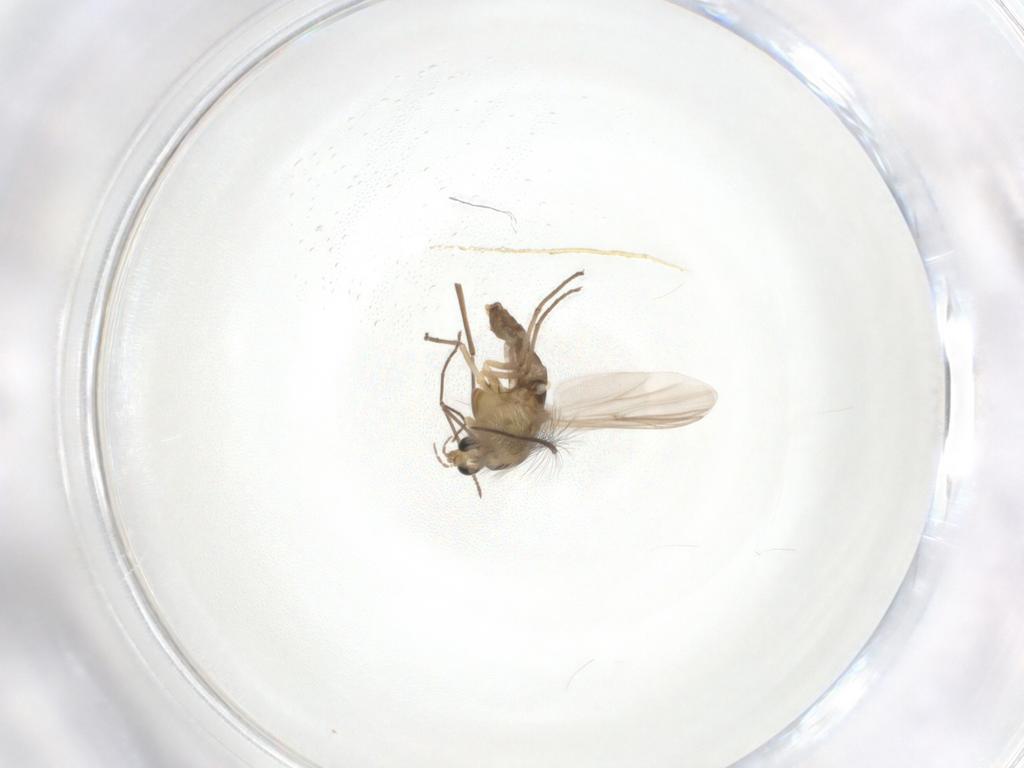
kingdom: Animalia
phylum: Arthropoda
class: Insecta
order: Diptera
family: Chironomidae
